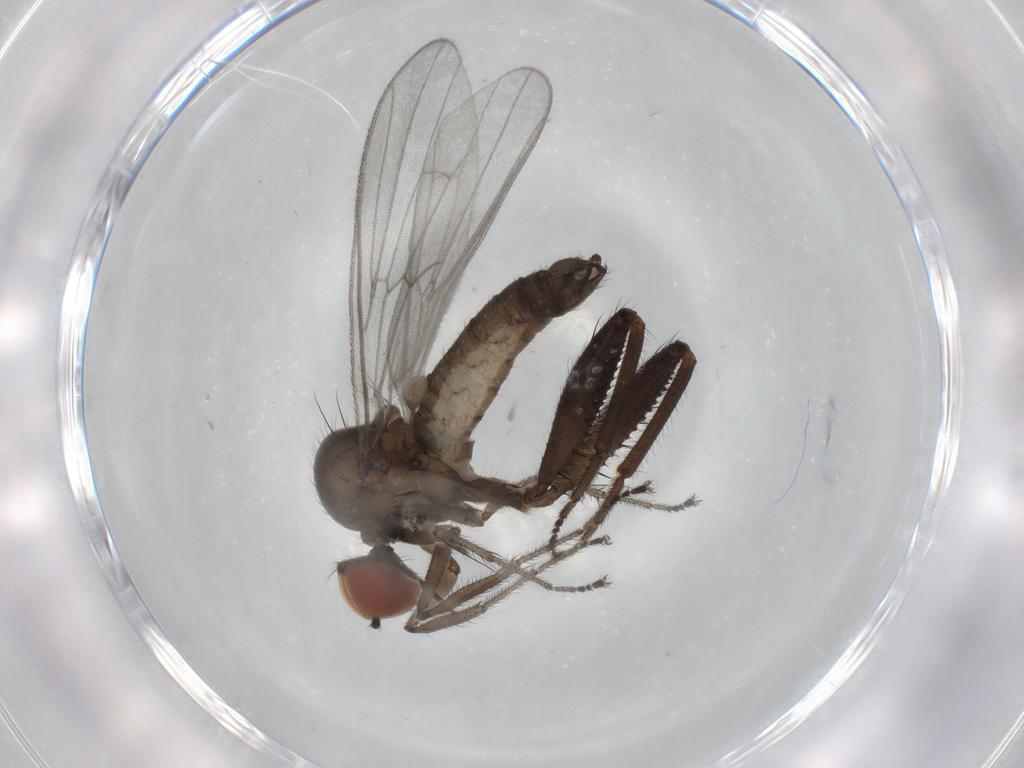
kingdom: Animalia
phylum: Arthropoda
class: Insecta
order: Diptera
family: Hybotidae
